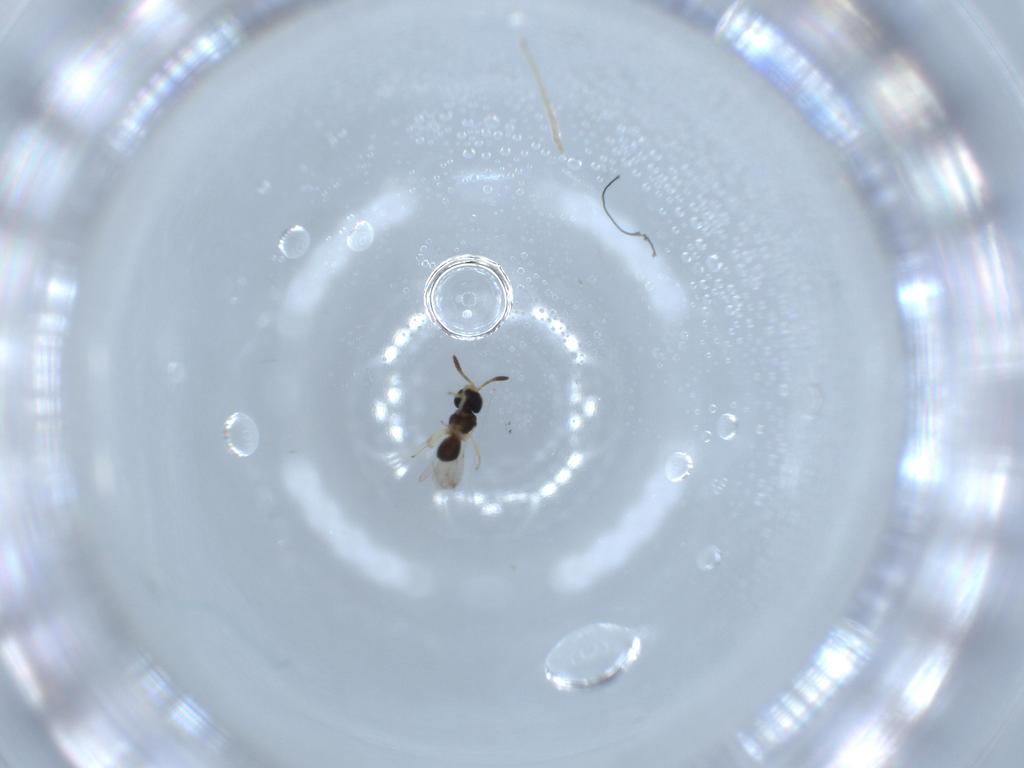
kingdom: Animalia
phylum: Arthropoda
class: Insecta
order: Hymenoptera
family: Scelionidae
